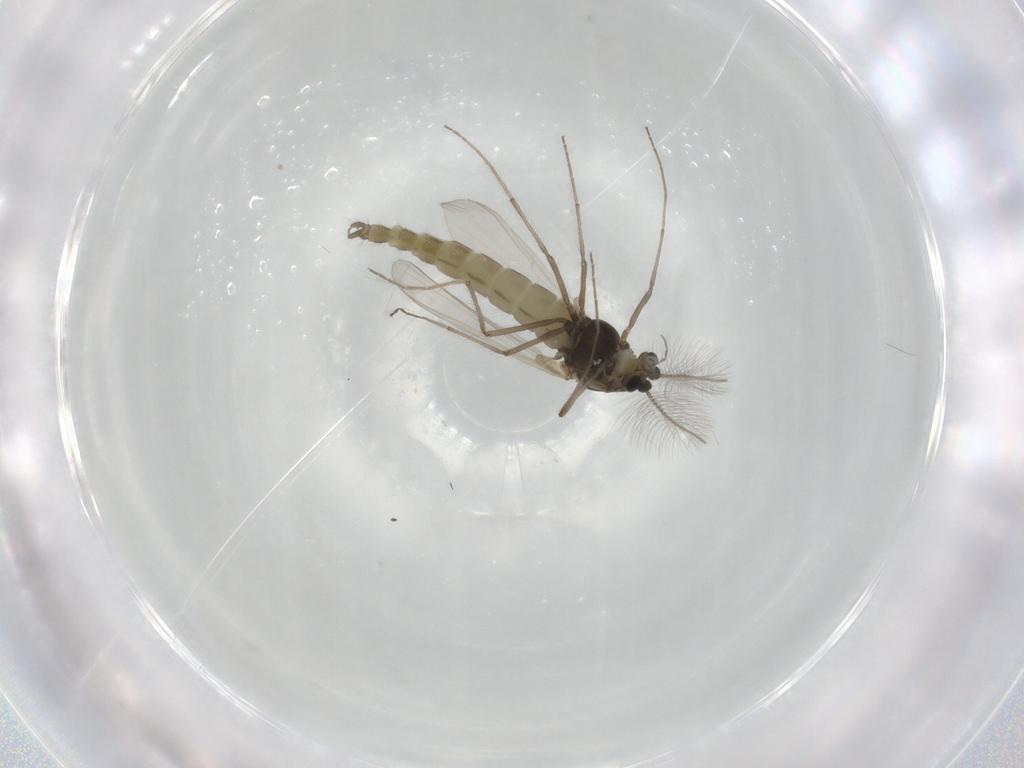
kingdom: Animalia
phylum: Arthropoda
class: Insecta
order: Diptera
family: Chironomidae
